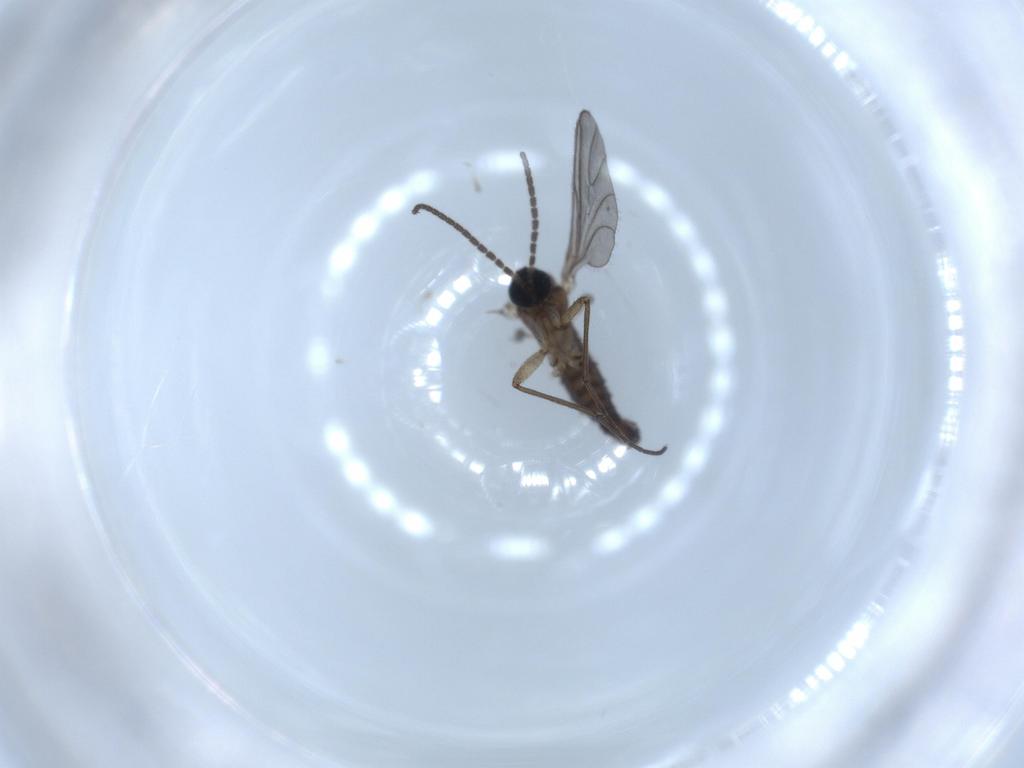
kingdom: Animalia
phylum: Arthropoda
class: Insecta
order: Diptera
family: Sciaridae
